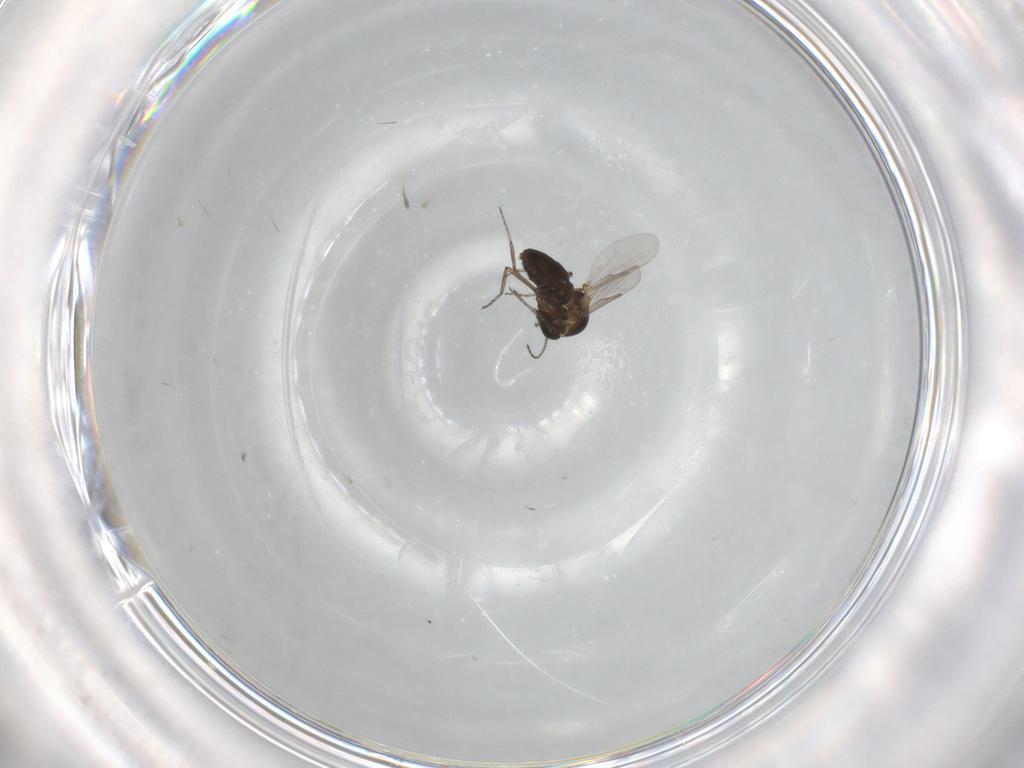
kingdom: Animalia
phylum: Arthropoda
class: Insecta
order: Diptera
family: Ceratopogonidae
